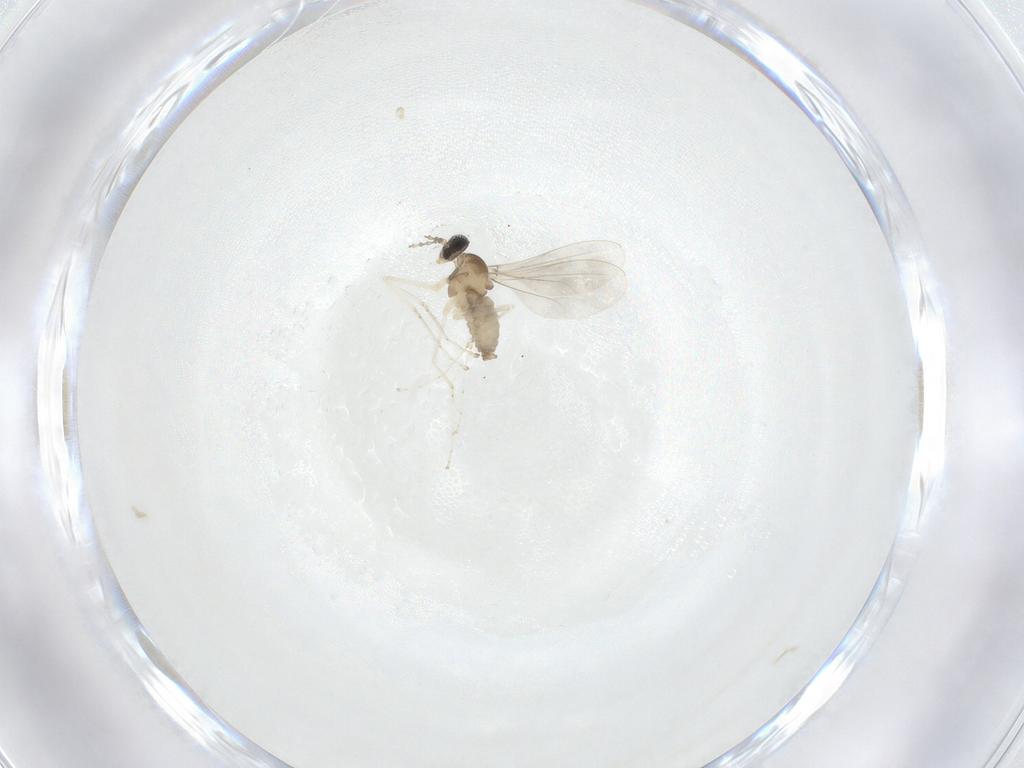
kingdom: Animalia
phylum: Arthropoda
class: Insecta
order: Diptera
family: Cecidomyiidae
